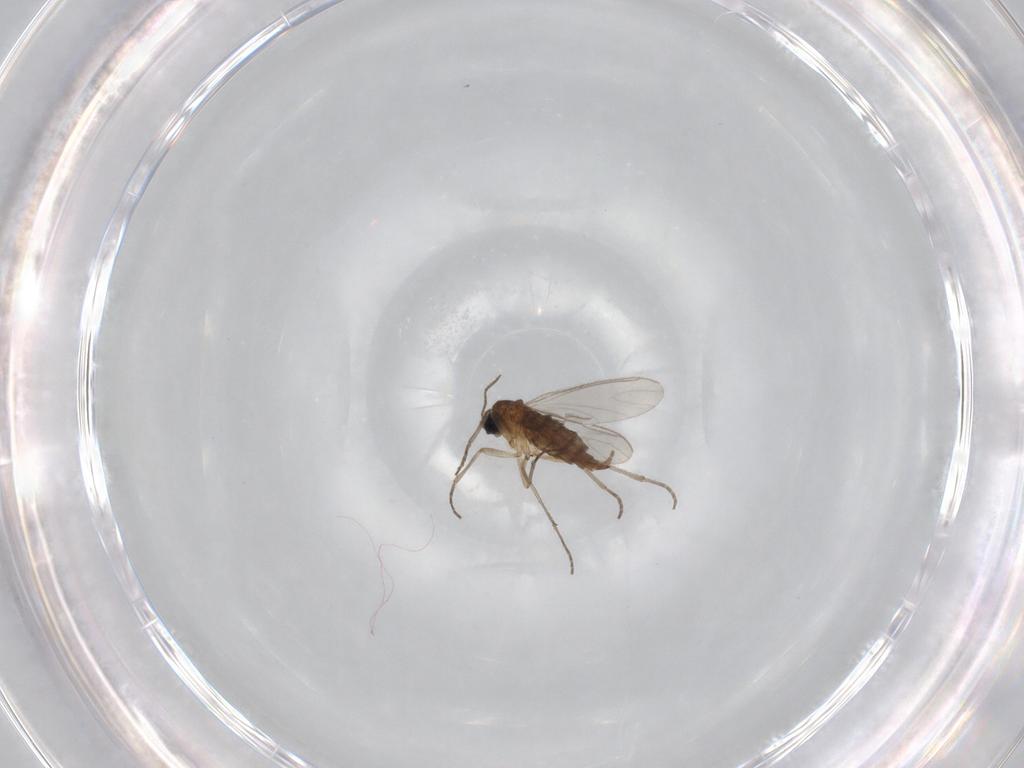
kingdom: Animalia
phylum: Arthropoda
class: Insecta
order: Diptera
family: Sciaridae
